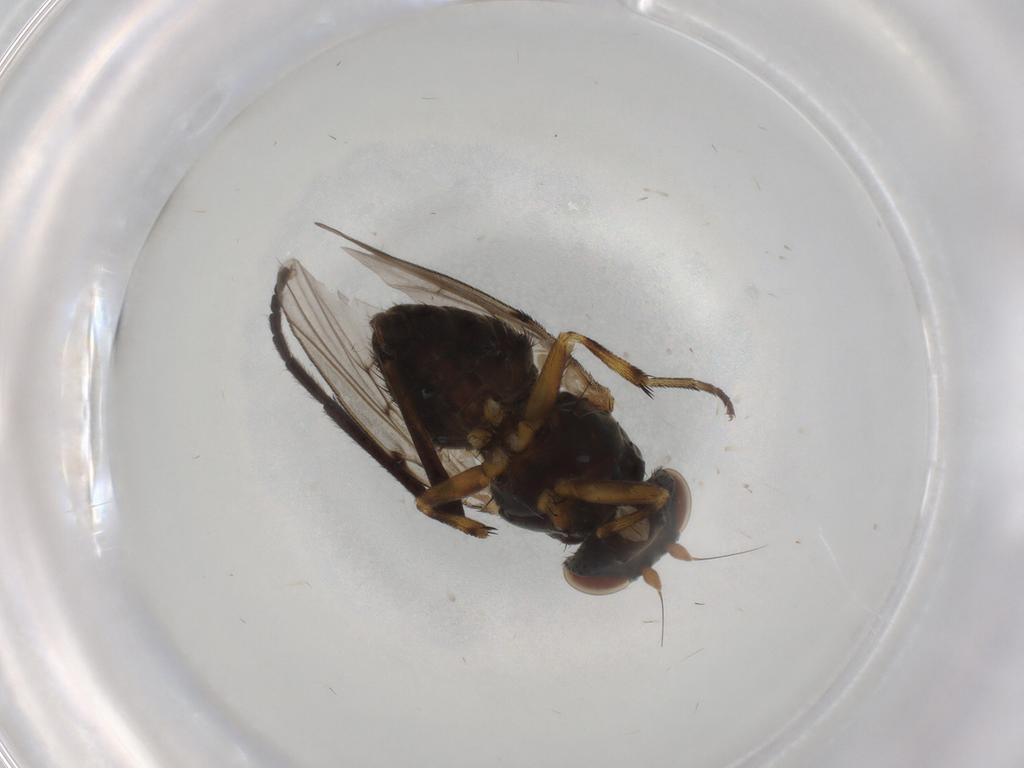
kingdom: Animalia
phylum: Arthropoda
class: Insecta
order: Diptera
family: Odiniidae
